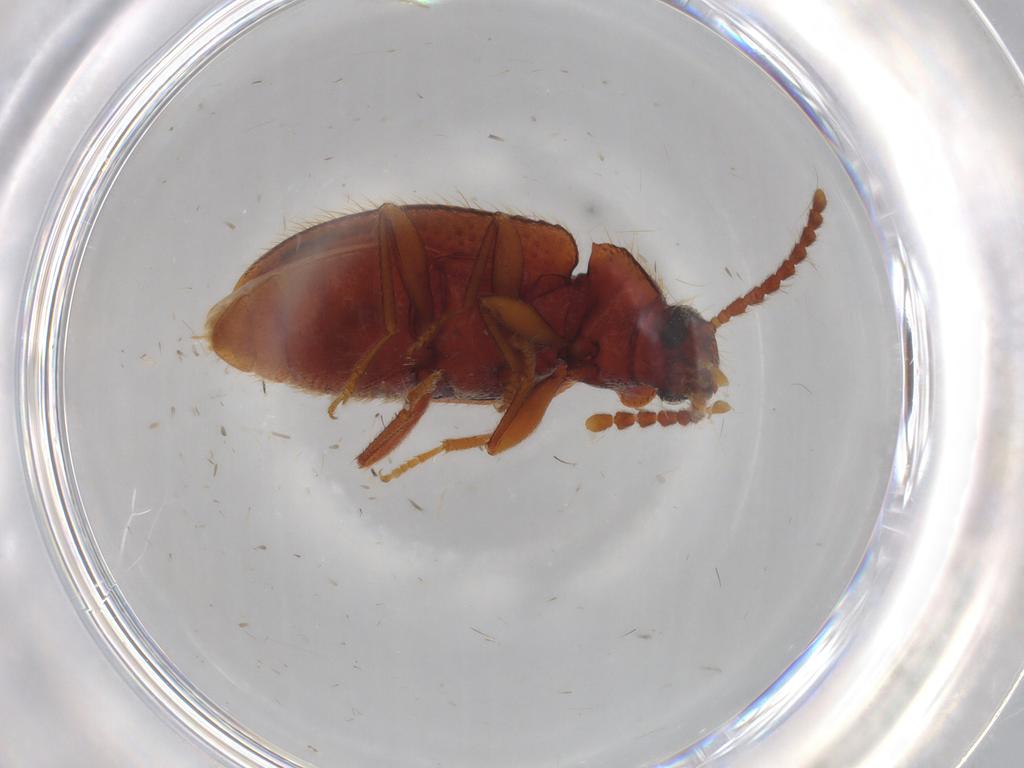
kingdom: Animalia
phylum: Arthropoda
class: Insecta
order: Coleoptera
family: Tenebrionidae
